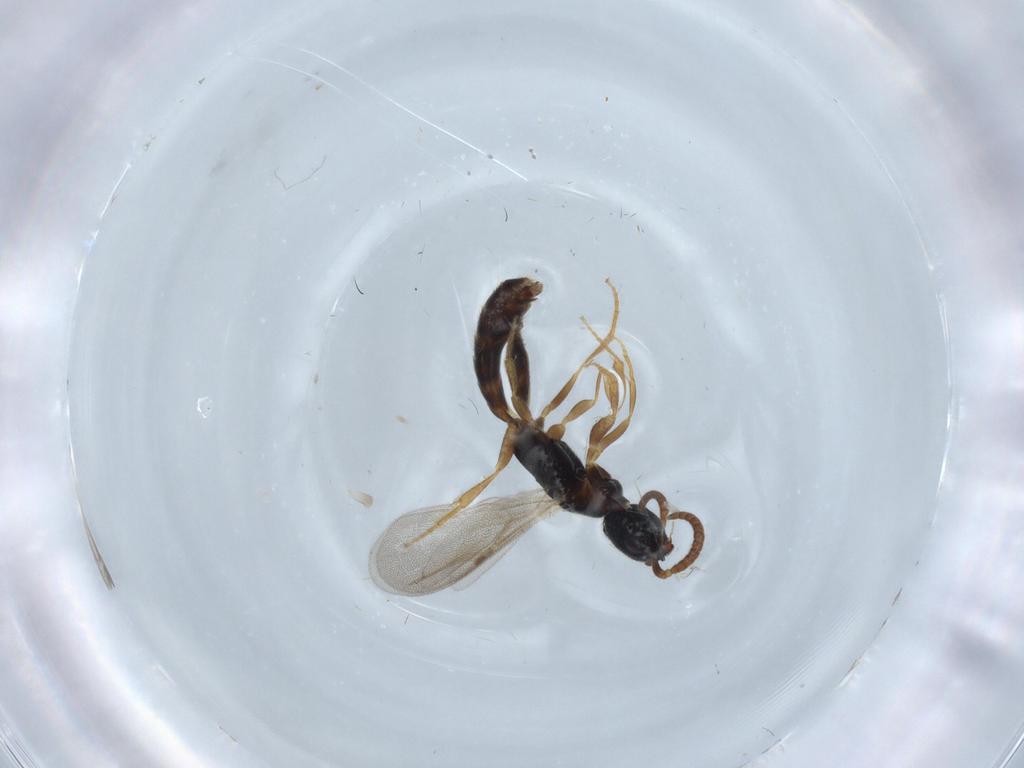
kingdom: Animalia
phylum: Arthropoda
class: Insecta
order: Hymenoptera
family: Bethylidae
